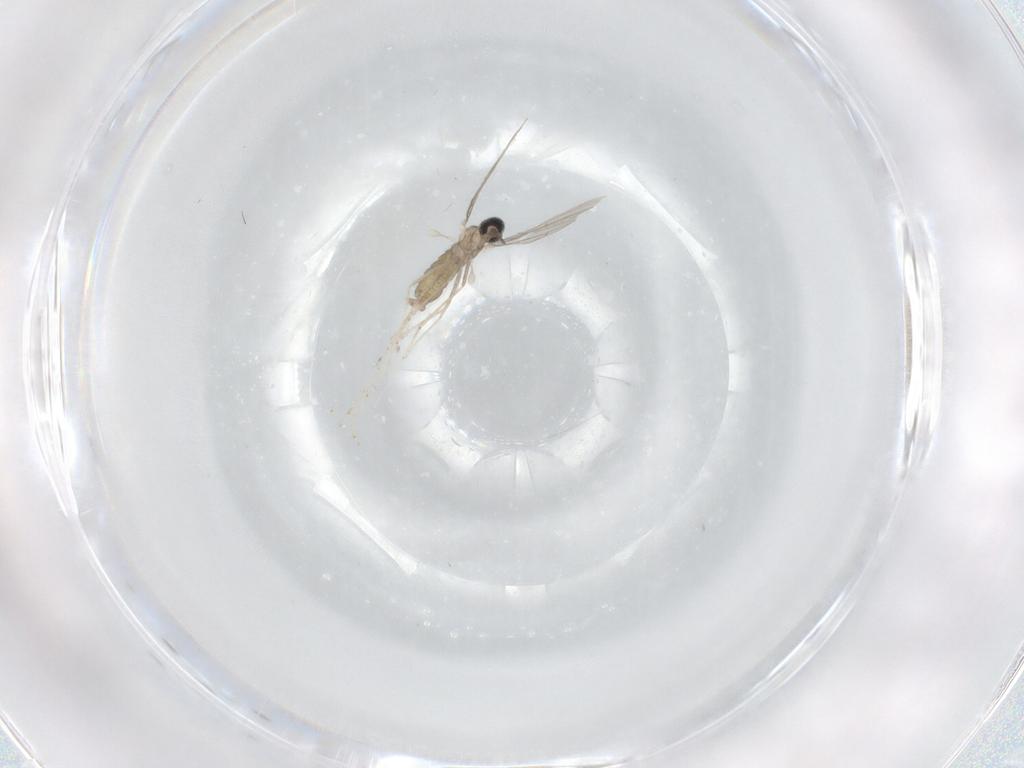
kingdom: Animalia
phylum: Arthropoda
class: Insecta
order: Diptera
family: Cecidomyiidae
